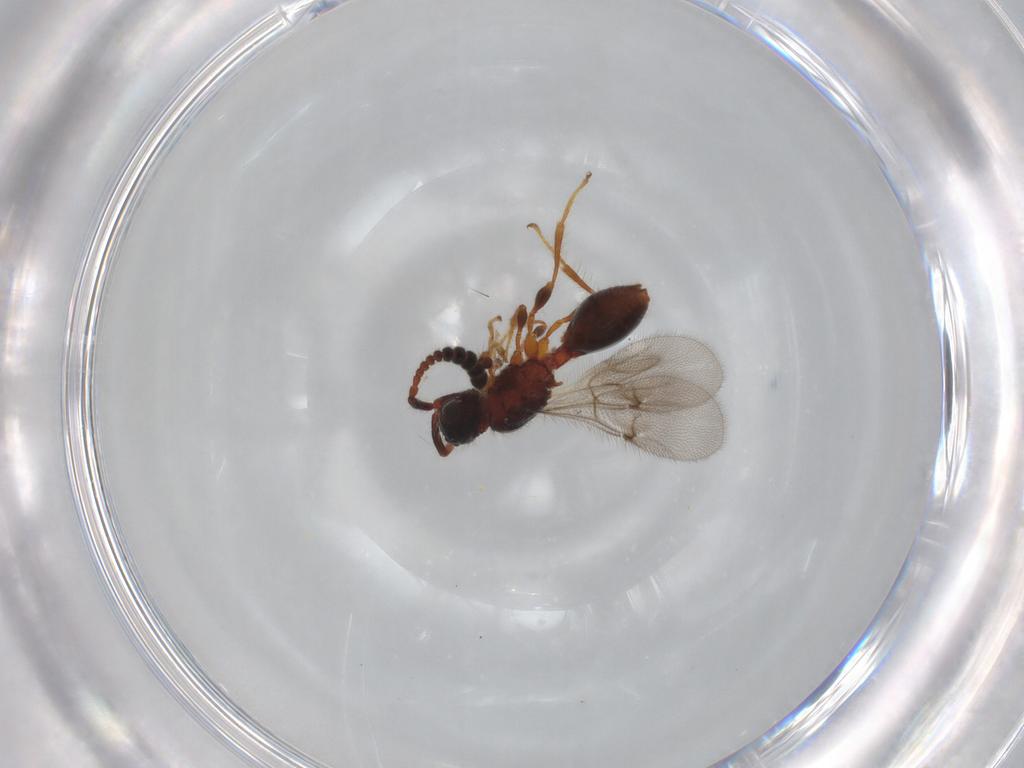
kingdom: Animalia
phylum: Arthropoda
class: Insecta
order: Hymenoptera
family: Diapriidae
